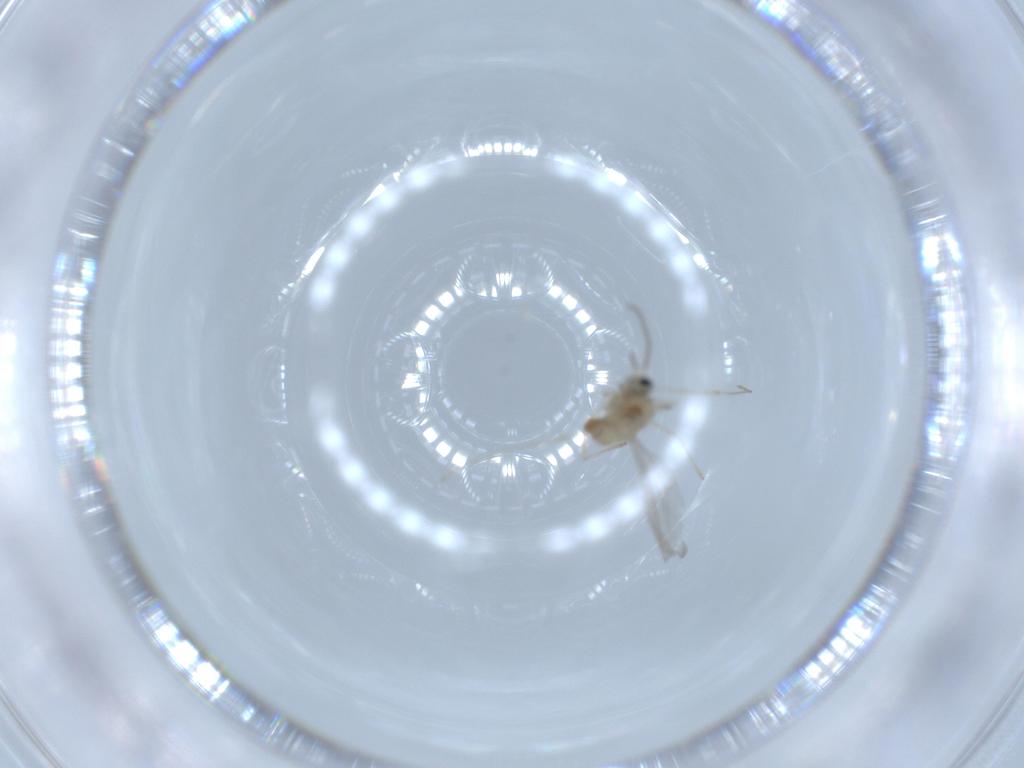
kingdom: Animalia
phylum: Arthropoda
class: Insecta
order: Diptera
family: Cecidomyiidae
